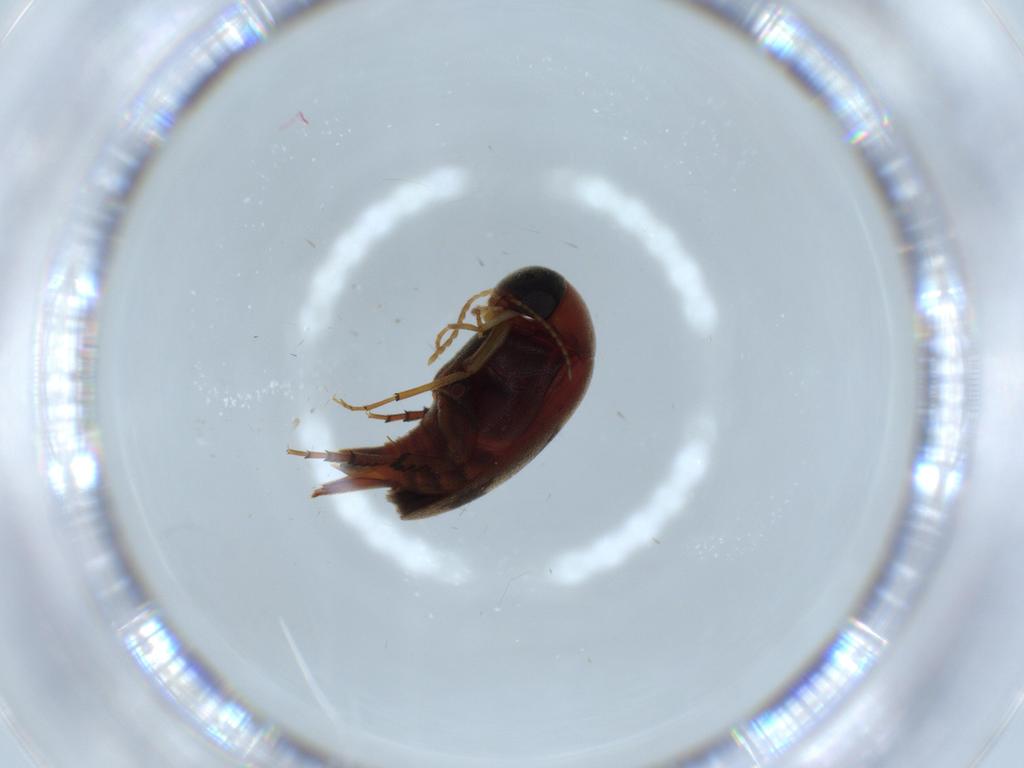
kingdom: Animalia
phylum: Arthropoda
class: Insecta
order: Coleoptera
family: Mordellidae
